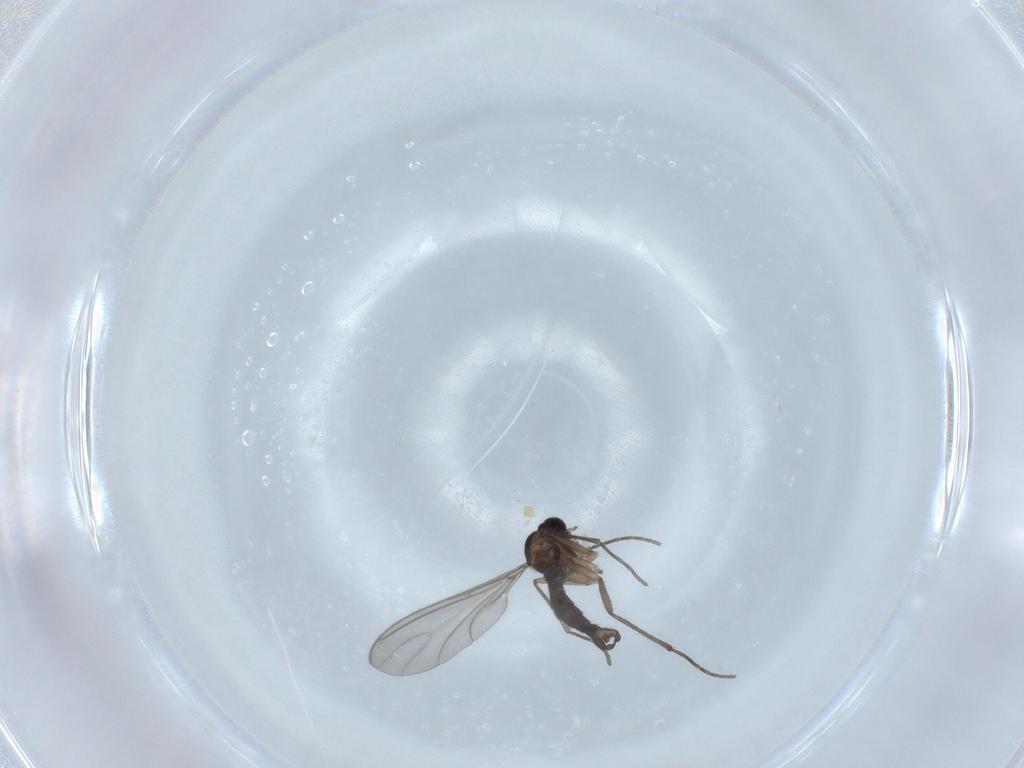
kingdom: Animalia
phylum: Arthropoda
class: Insecta
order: Diptera
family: Sciaridae
